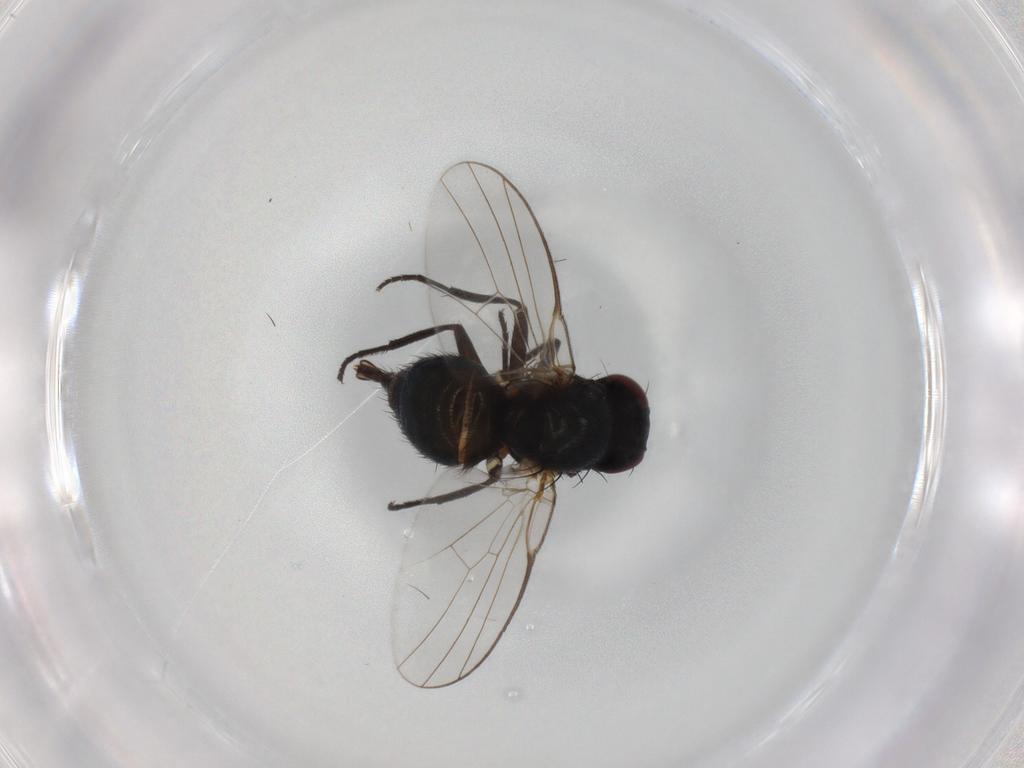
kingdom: Animalia
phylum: Arthropoda
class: Insecta
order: Diptera
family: Agromyzidae
